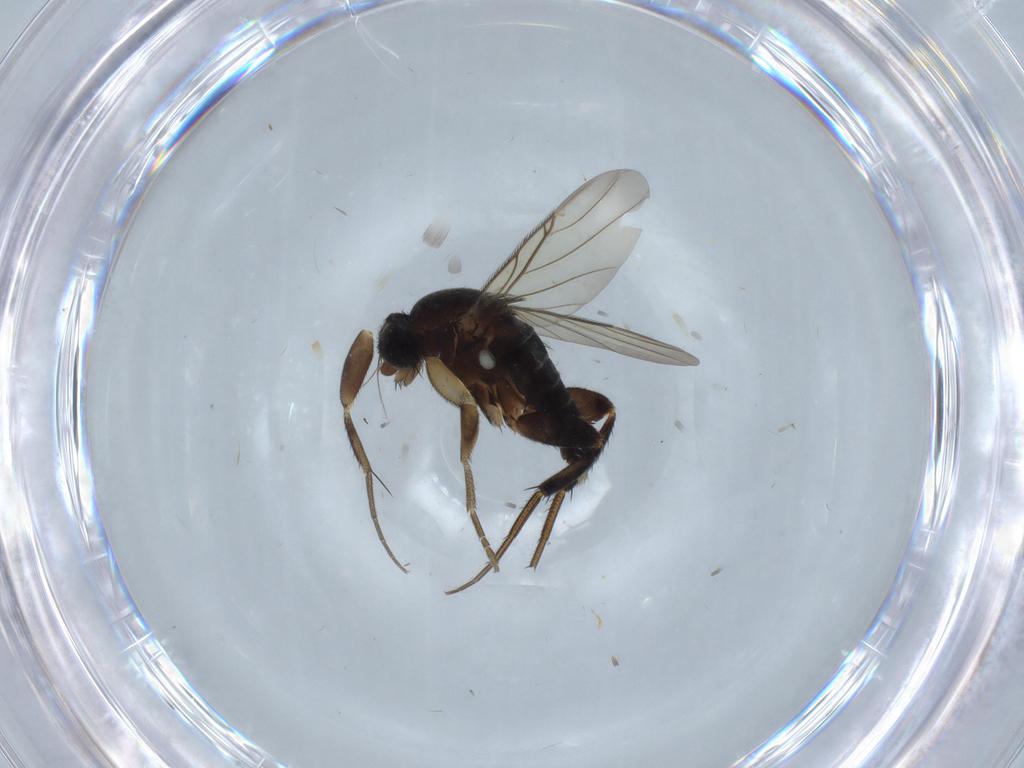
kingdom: Animalia
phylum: Arthropoda
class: Insecta
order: Diptera
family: Phoridae
